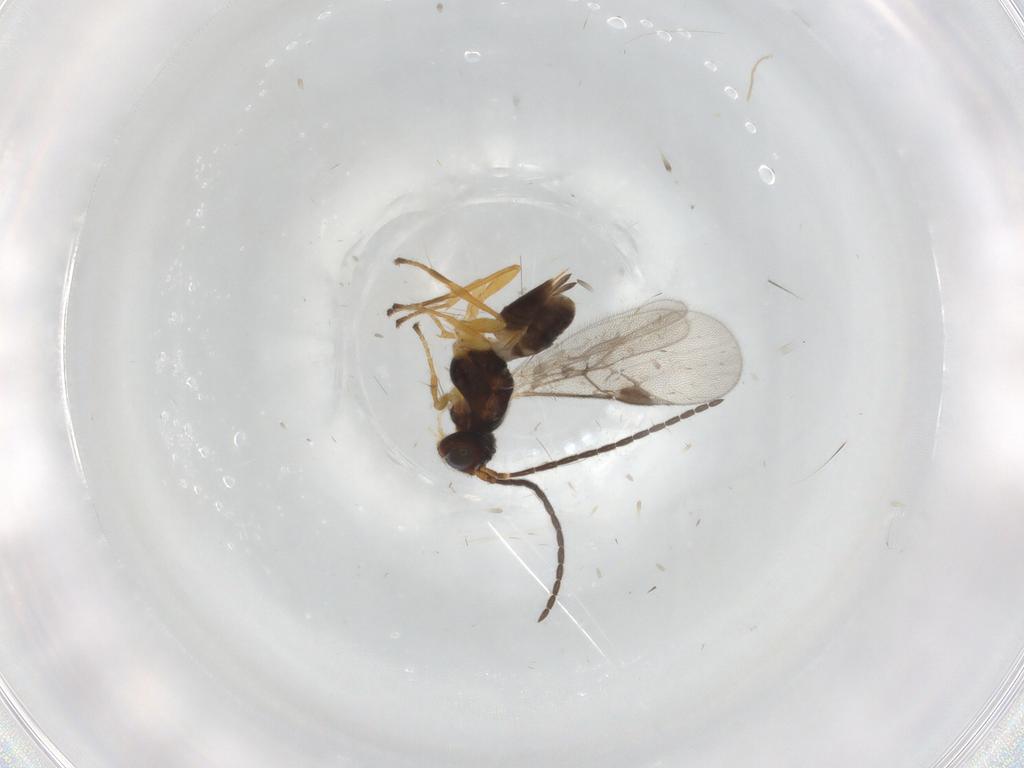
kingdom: Animalia
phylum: Arthropoda
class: Insecta
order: Hymenoptera
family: Braconidae
